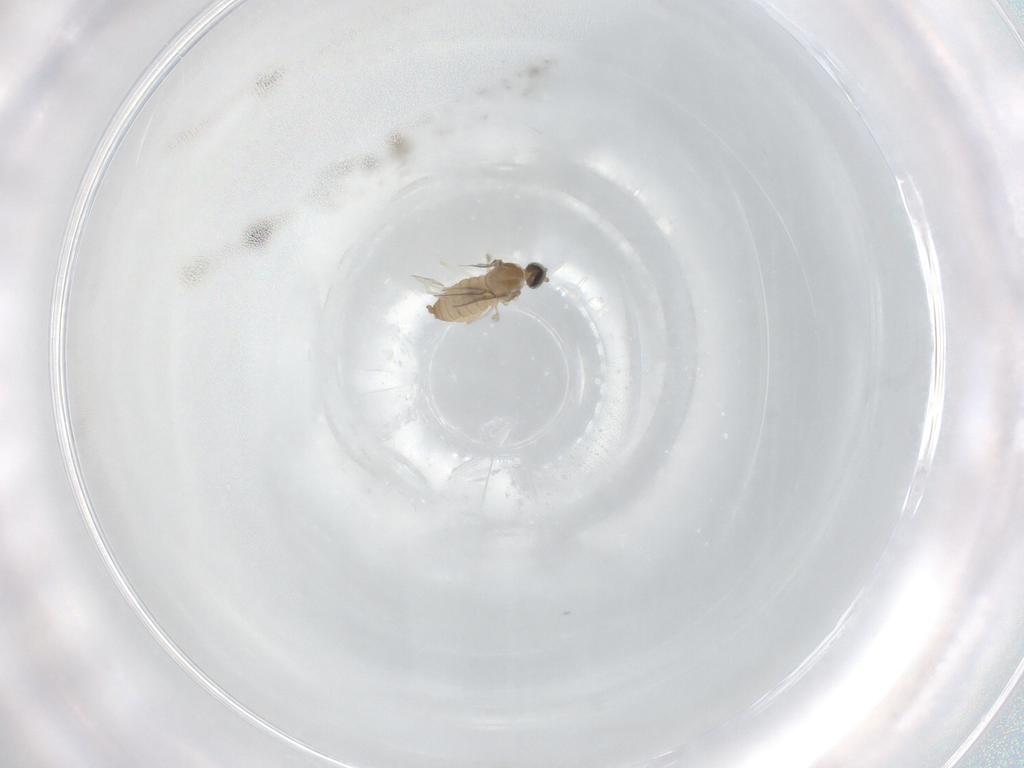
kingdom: Animalia
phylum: Arthropoda
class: Insecta
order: Diptera
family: Cecidomyiidae
